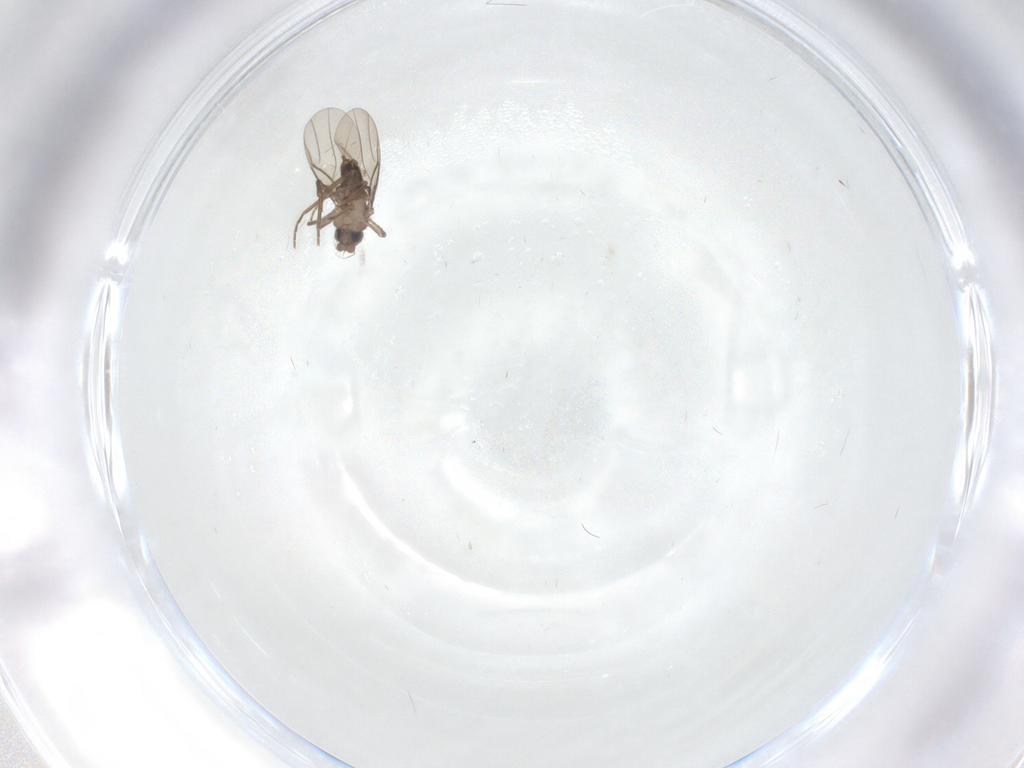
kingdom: Animalia
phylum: Arthropoda
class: Insecta
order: Diptera
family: Phoridae
